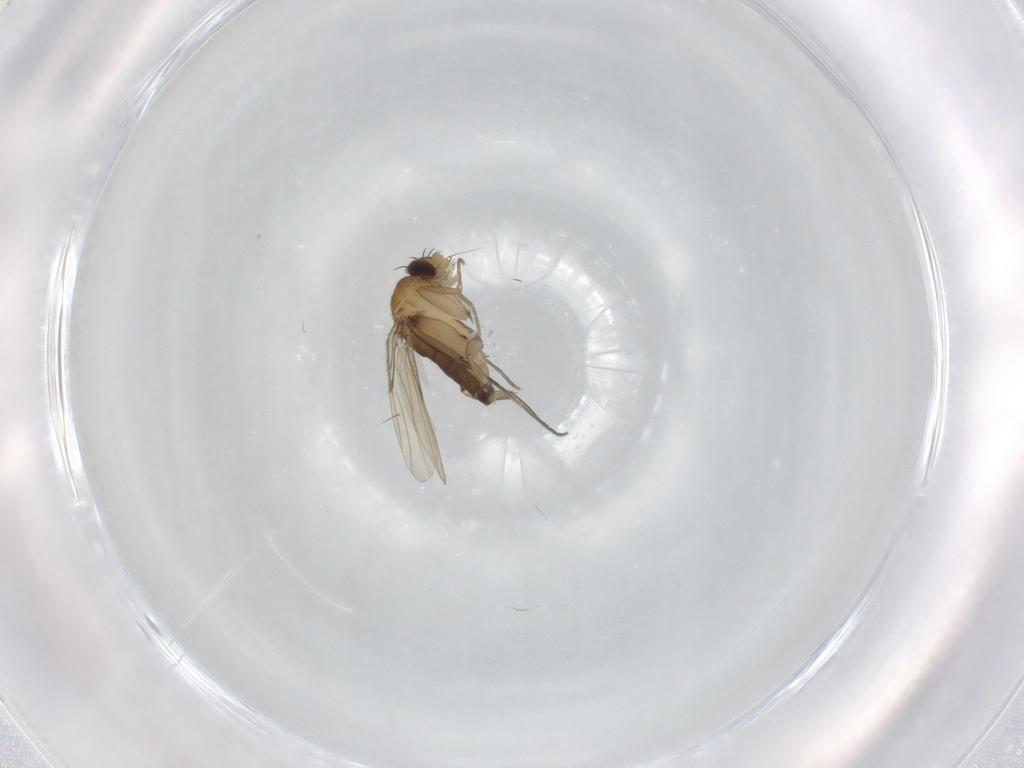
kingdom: Animalia
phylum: Arthropoda
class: Insecta
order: Diptera
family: Phoridae
